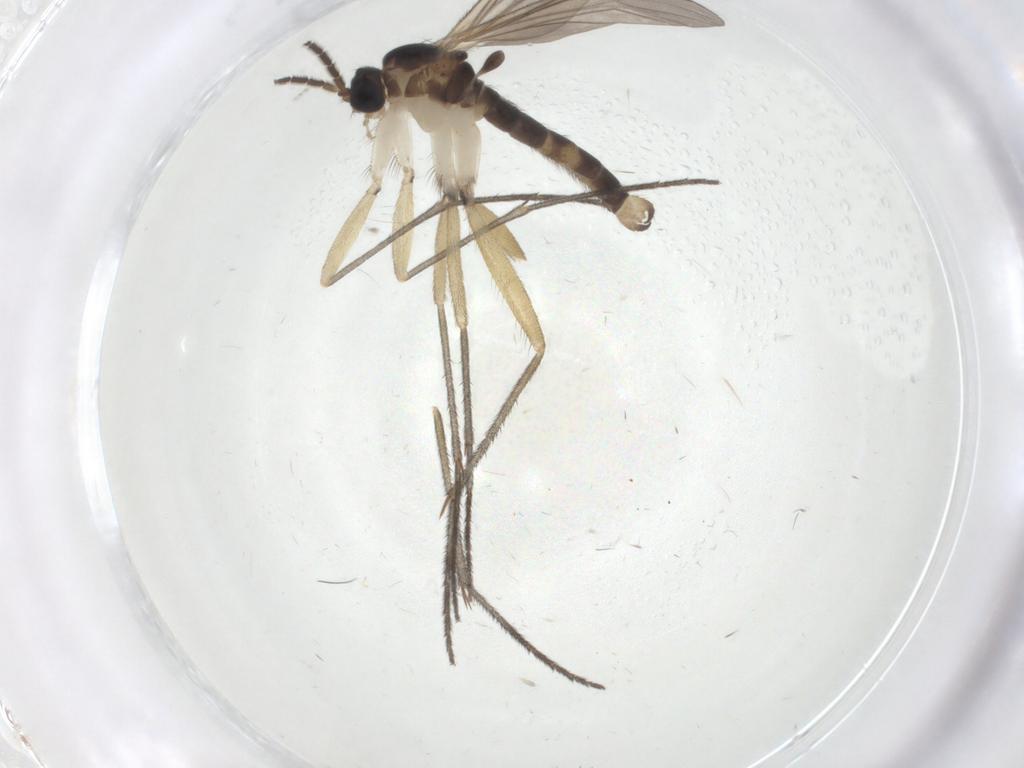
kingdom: Animalia
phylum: Arthropoda
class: Insecta
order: Diptera
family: Sciaridae
